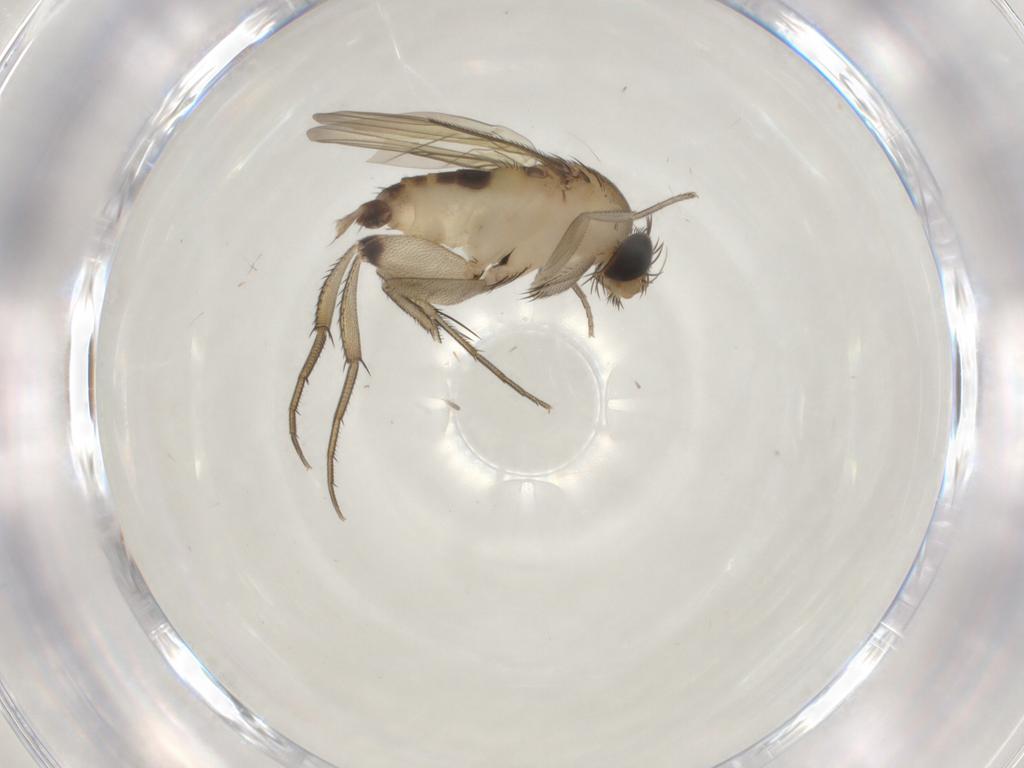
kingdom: Animalia
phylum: Arthropoda
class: Insecta
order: Diptera
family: Phoridae
